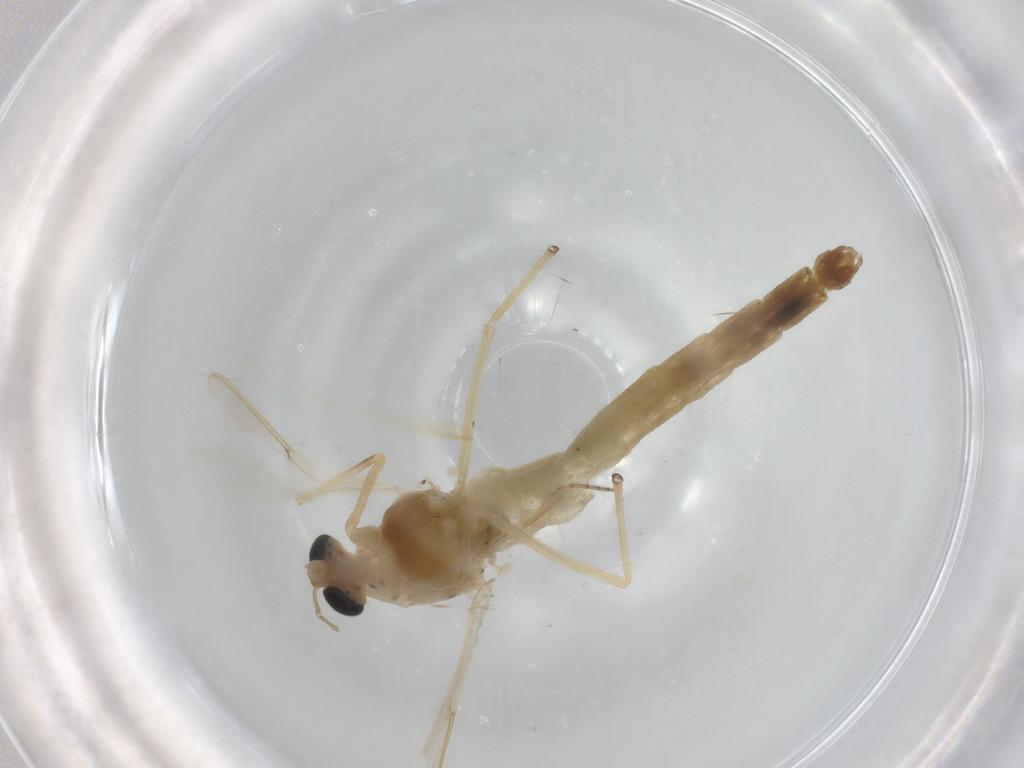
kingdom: Animalia
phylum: Arthropoda
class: Insecta
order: Diptera
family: Chironomidae
